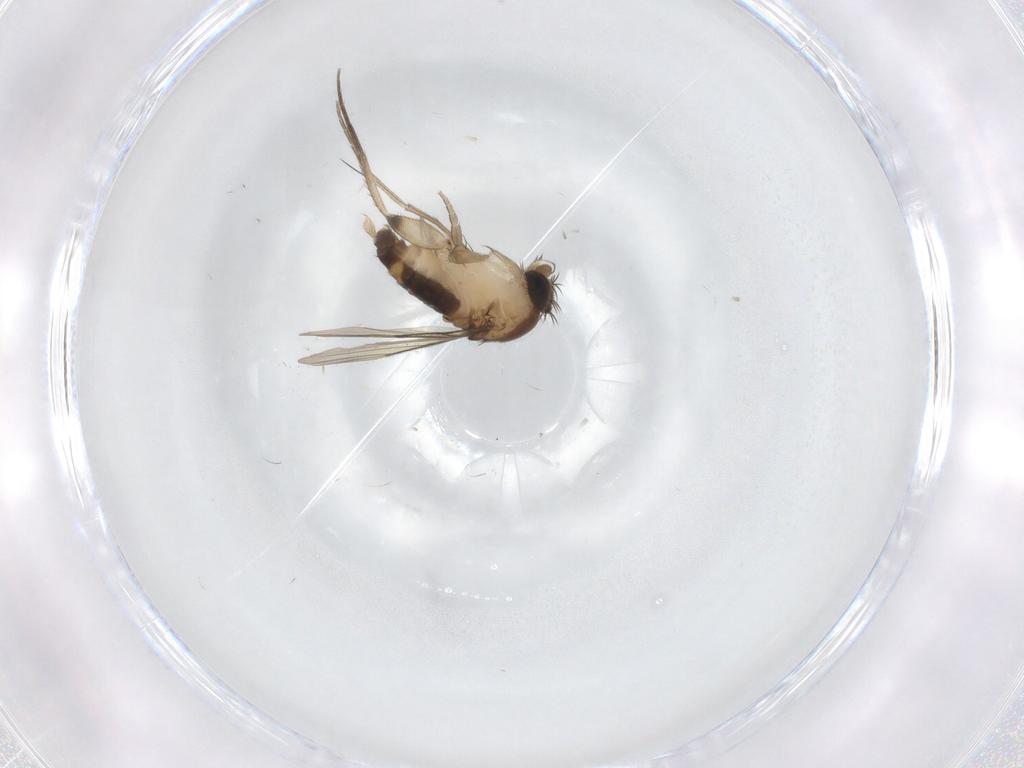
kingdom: Animalia
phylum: Arthropoda
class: Insecta
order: Diptera
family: Phoridae
